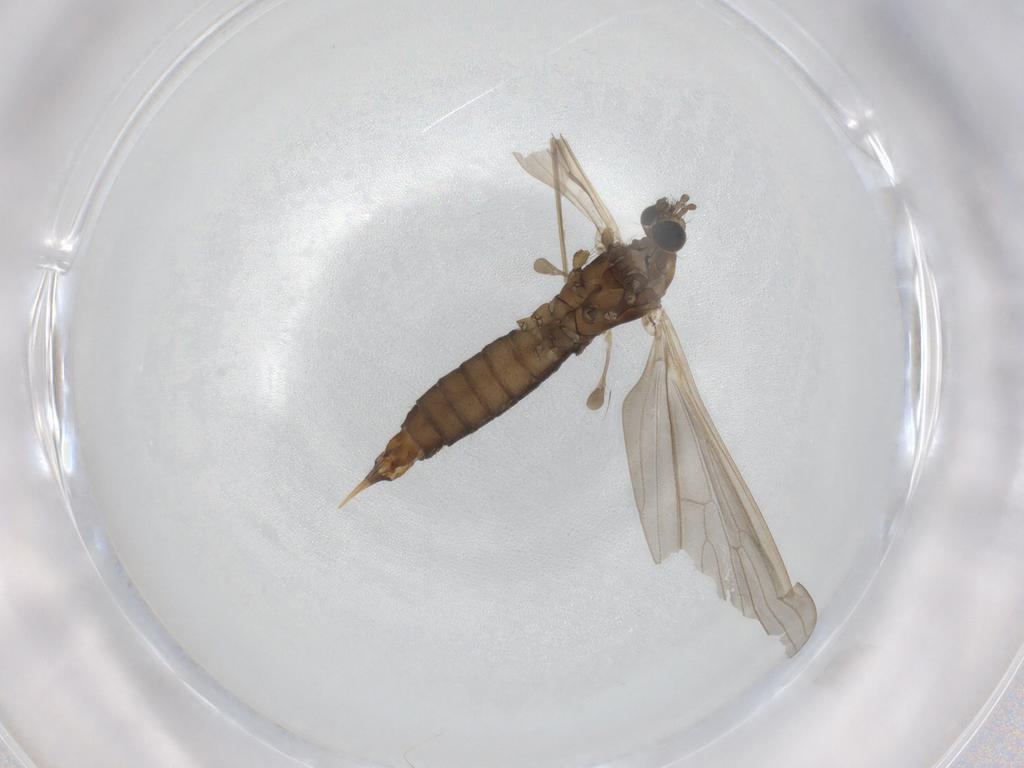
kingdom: Animalia
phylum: Arthropoda
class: Insecta
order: Diptera
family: Limoniidae
